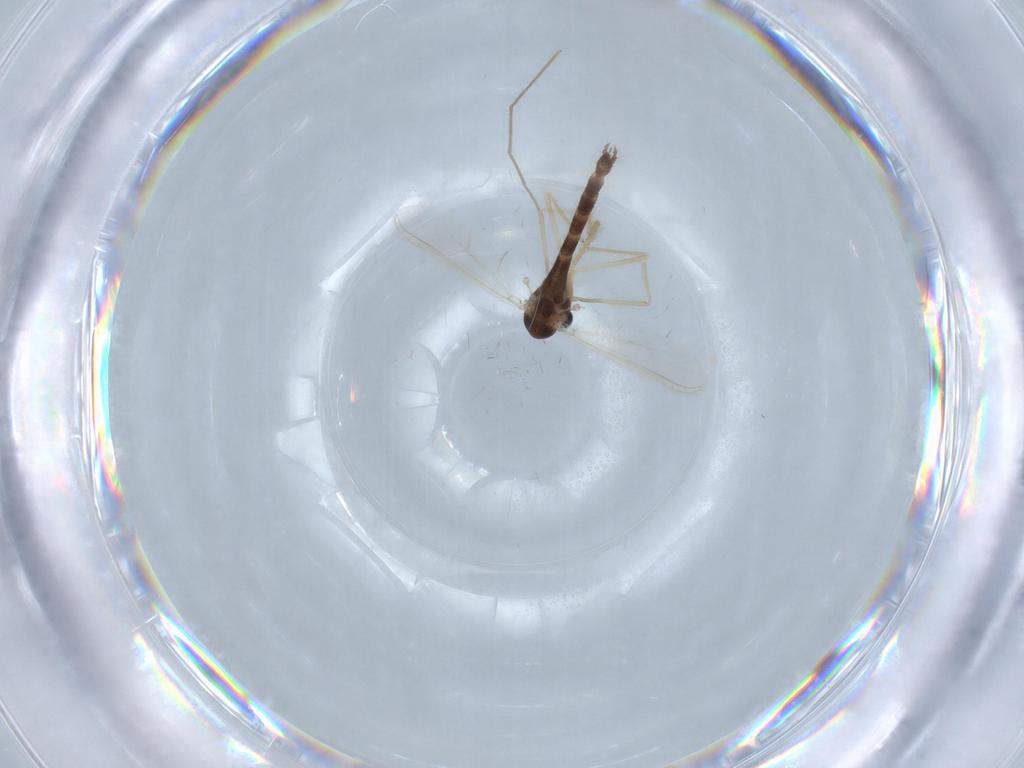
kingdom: Animalia
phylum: Arthropoda
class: Insecta
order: Diptera
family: Chironomidae
